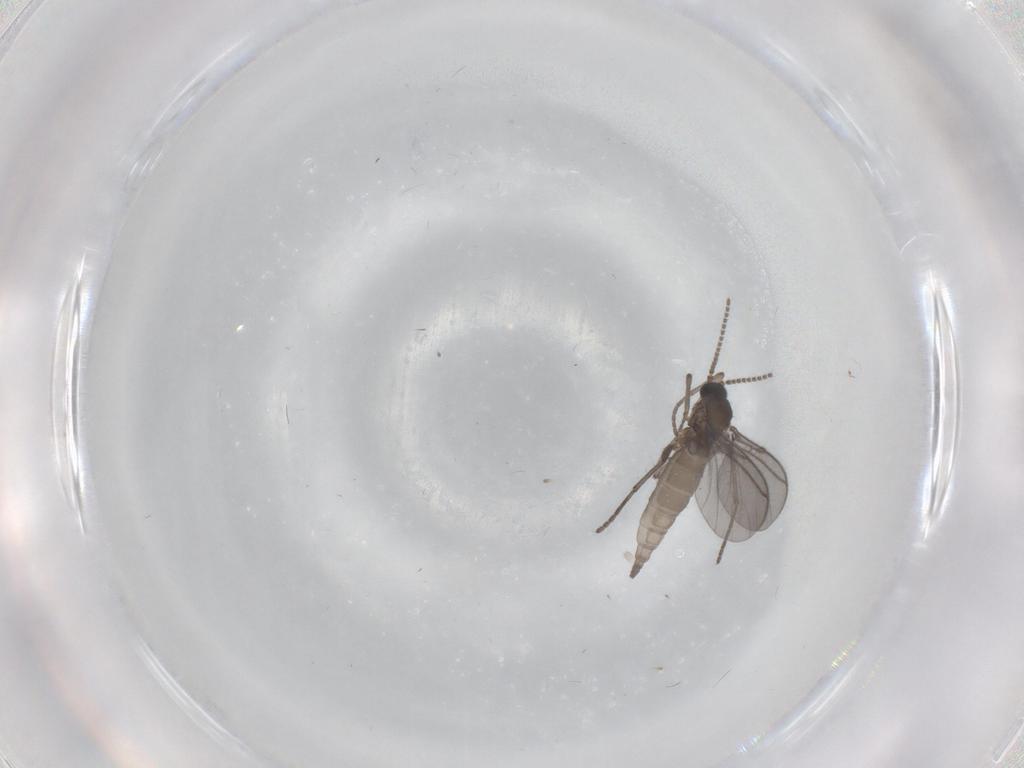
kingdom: Animalia
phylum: Arthropoda
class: Insecta
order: Diptera
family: Sciaridae
